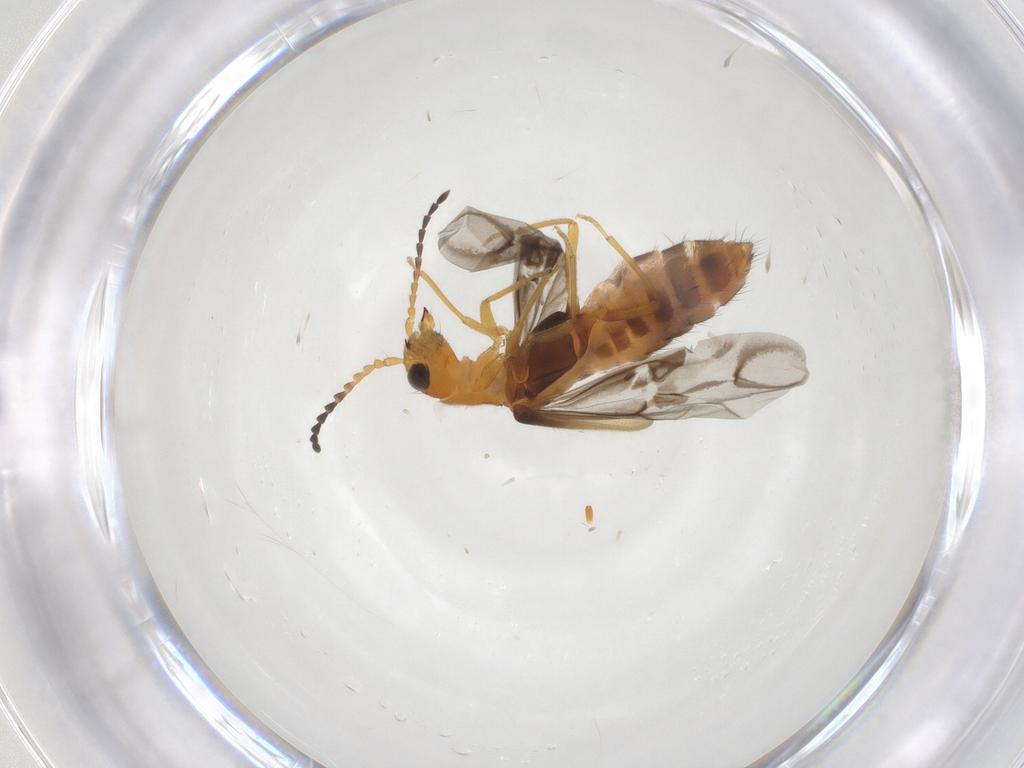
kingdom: Animalia
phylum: Arthropoda
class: Insecta
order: Coleoptera
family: Melyridae
